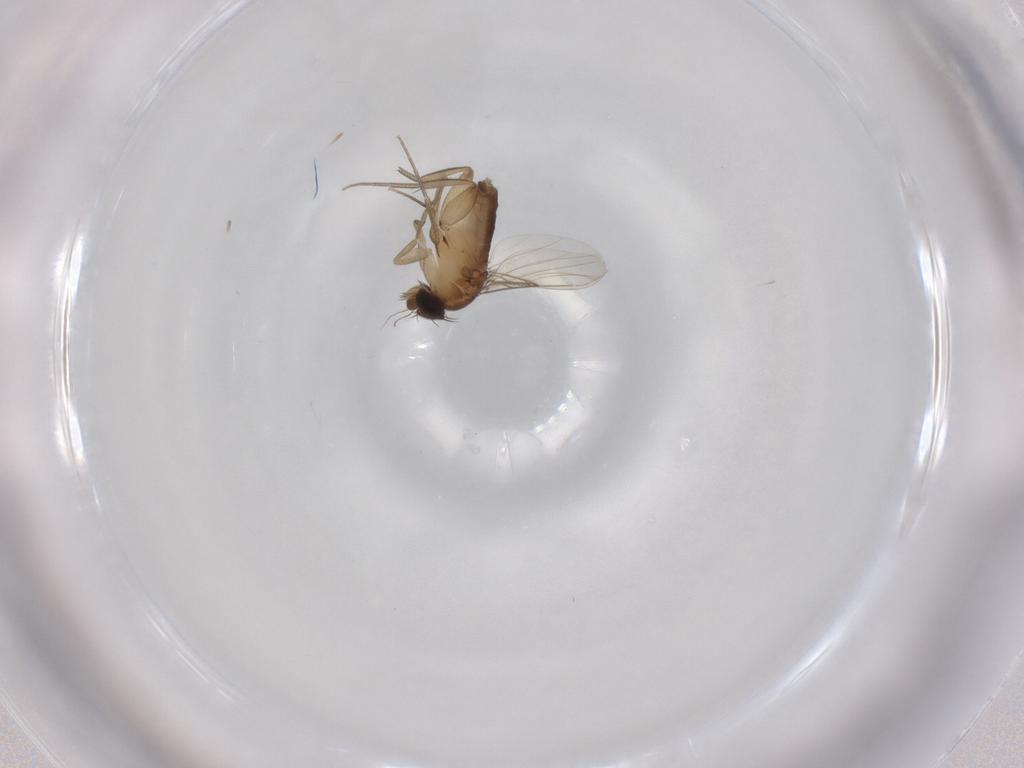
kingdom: Animalia
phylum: Arthropoda
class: Insecta
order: Diptera
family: Phoridae
